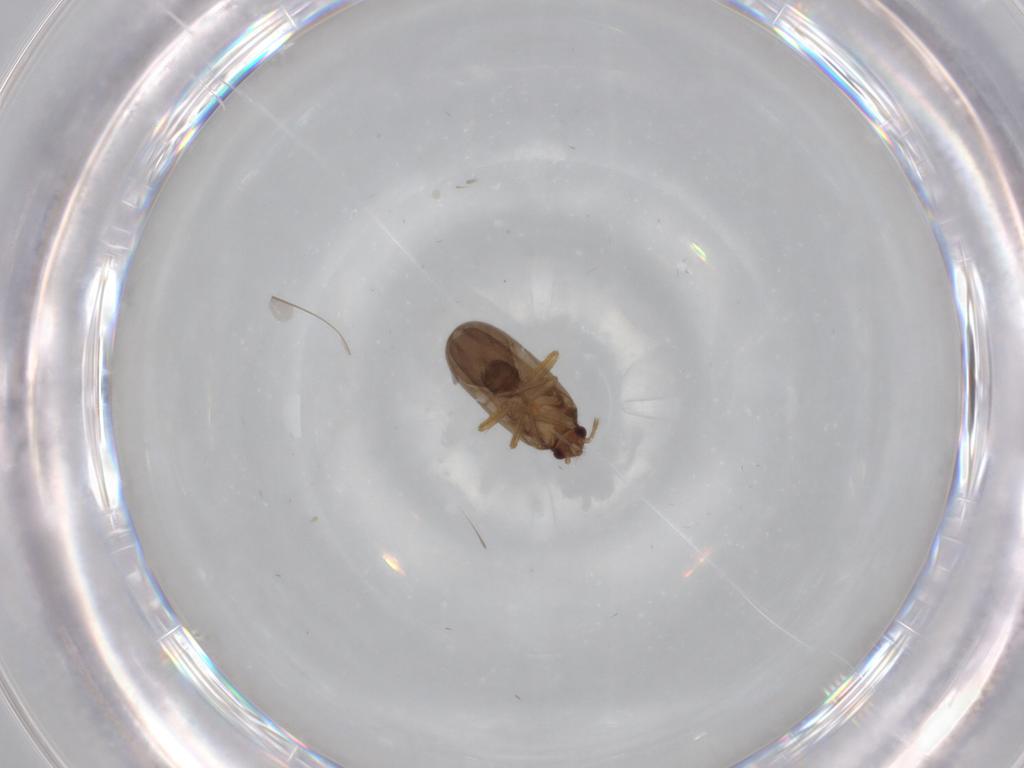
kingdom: Animalia
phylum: Arthropoda
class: Insecta
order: Hemiptera
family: Ceratocombidae
